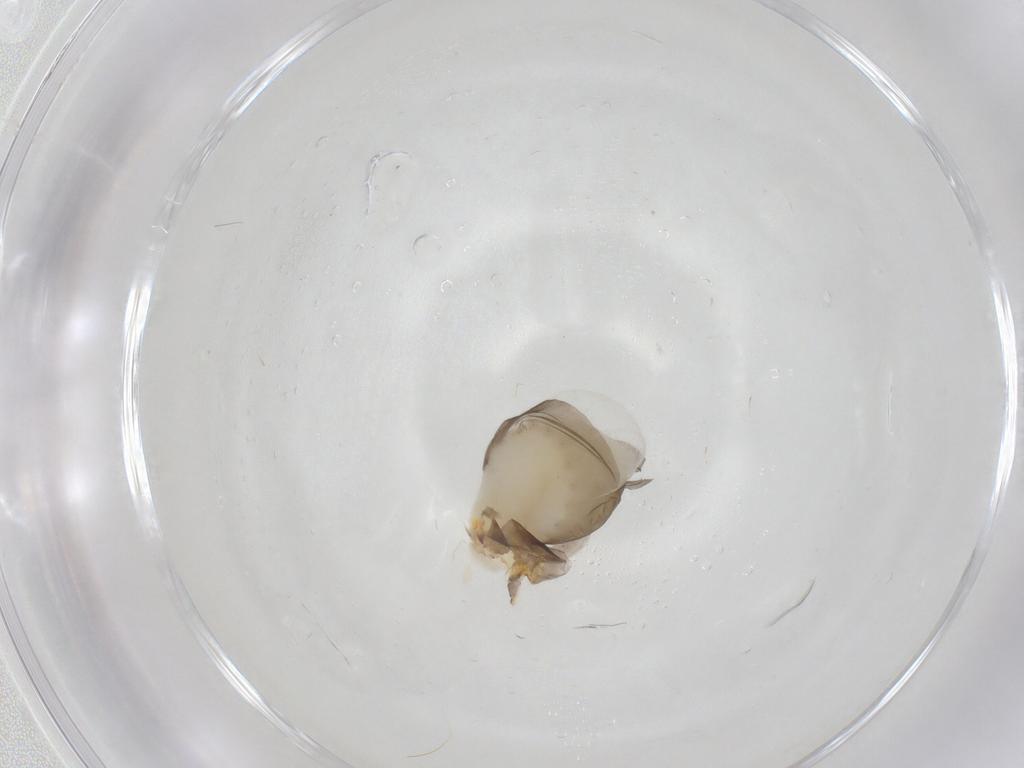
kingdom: Animalia
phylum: Arthropoda
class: Insecta
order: Hymenoptera
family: Dryinidae
